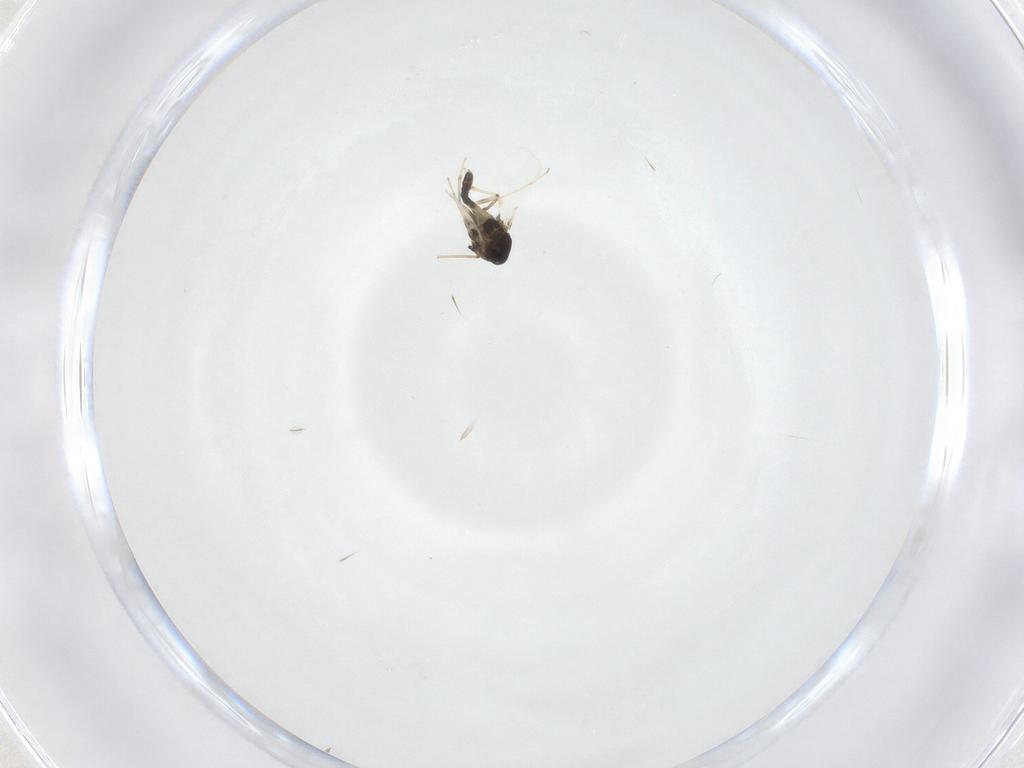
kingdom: Animalia
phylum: Arthropoda
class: Insecta
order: Diptera
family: Chironomidae
